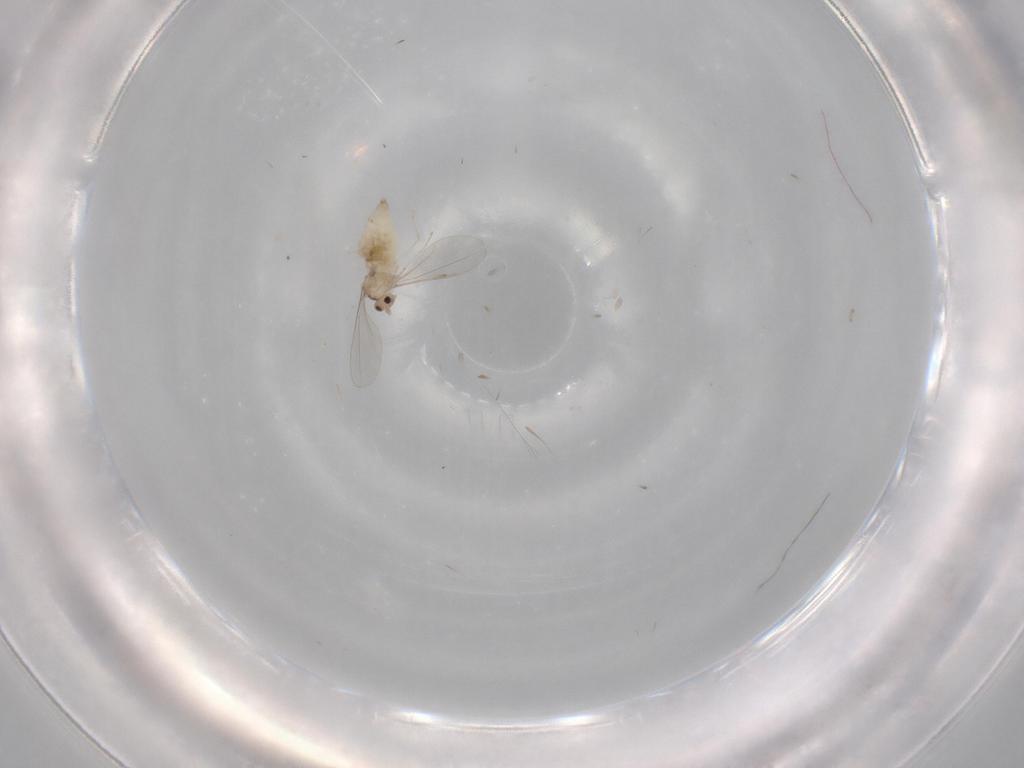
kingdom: Animalia
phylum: Arthropoda
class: Insecta
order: Diptera
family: Cecidomyiidae
